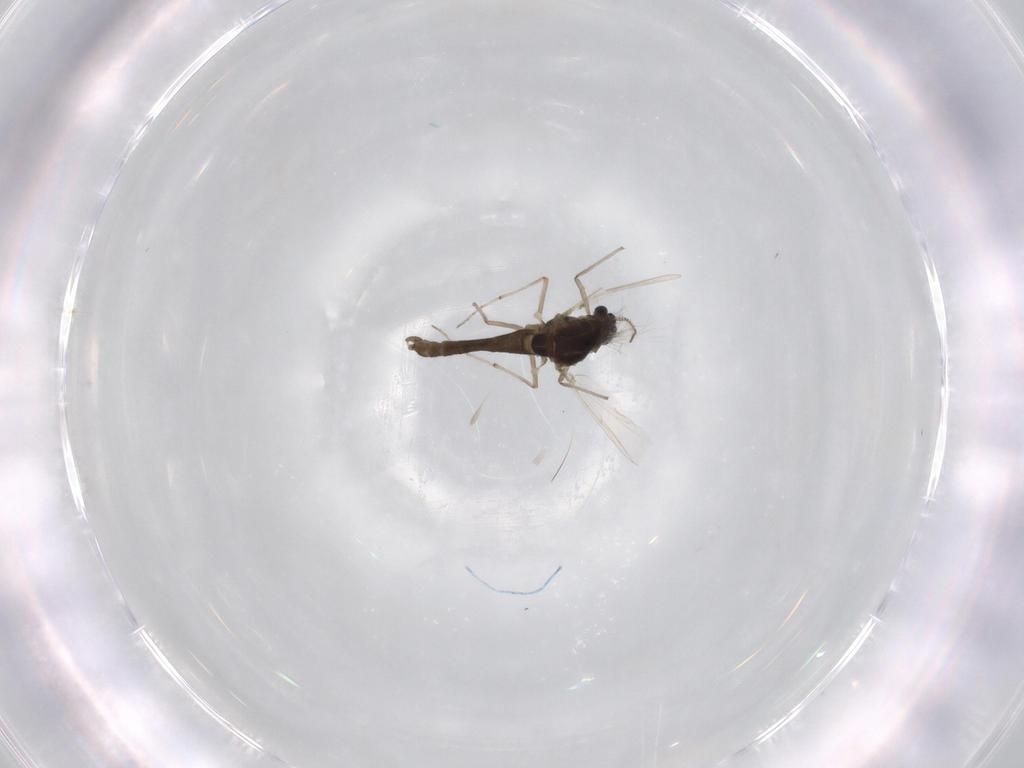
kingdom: Animalia
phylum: Arthropoda
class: Insecta
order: Diptera
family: Chironomidae
